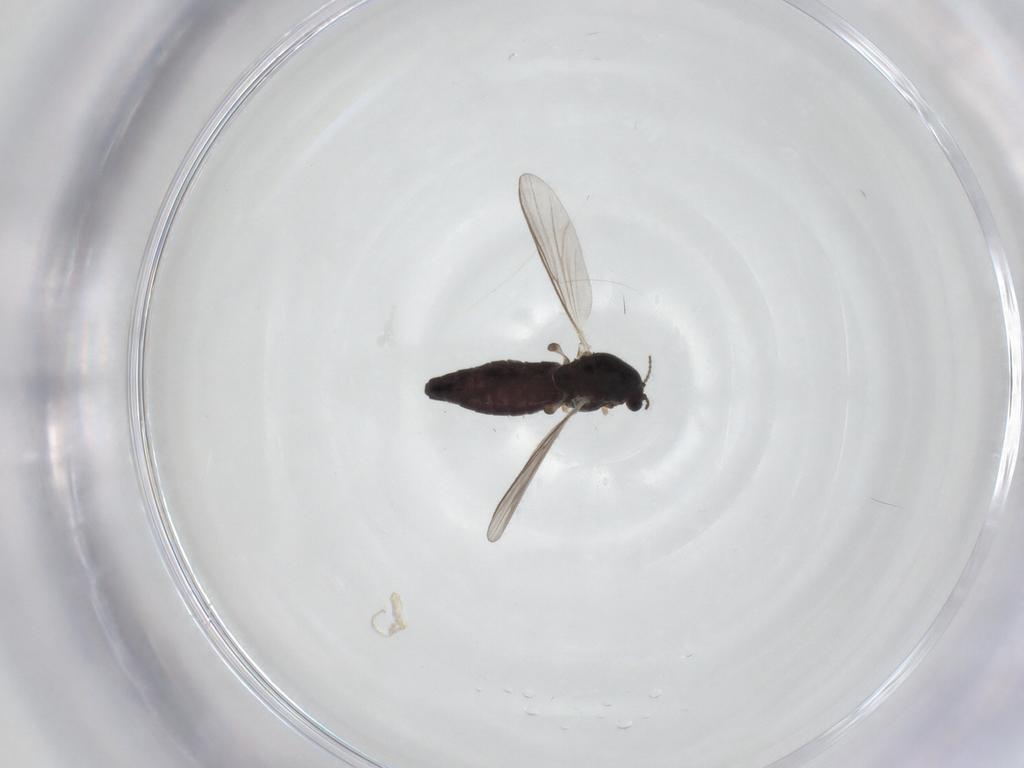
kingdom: Animalia
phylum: Arthropoda
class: Insecta
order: Diptera
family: Chironomidae
